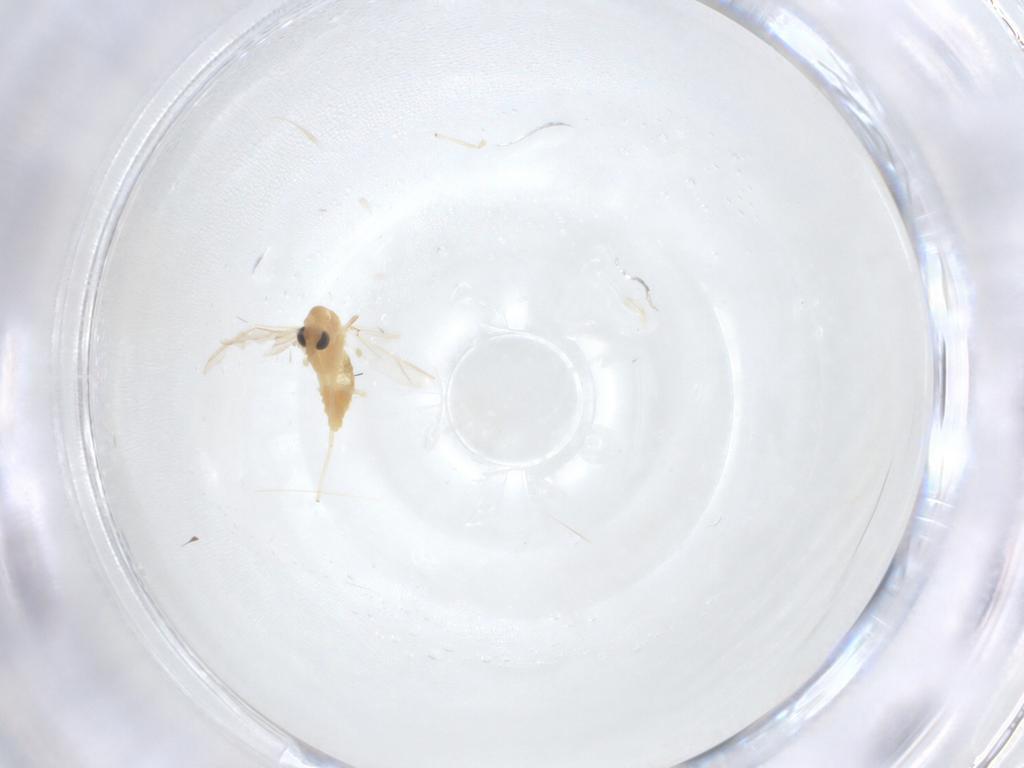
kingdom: Animalia
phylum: Arthropoda
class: Insecta
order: Diptera
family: Chironomidae
